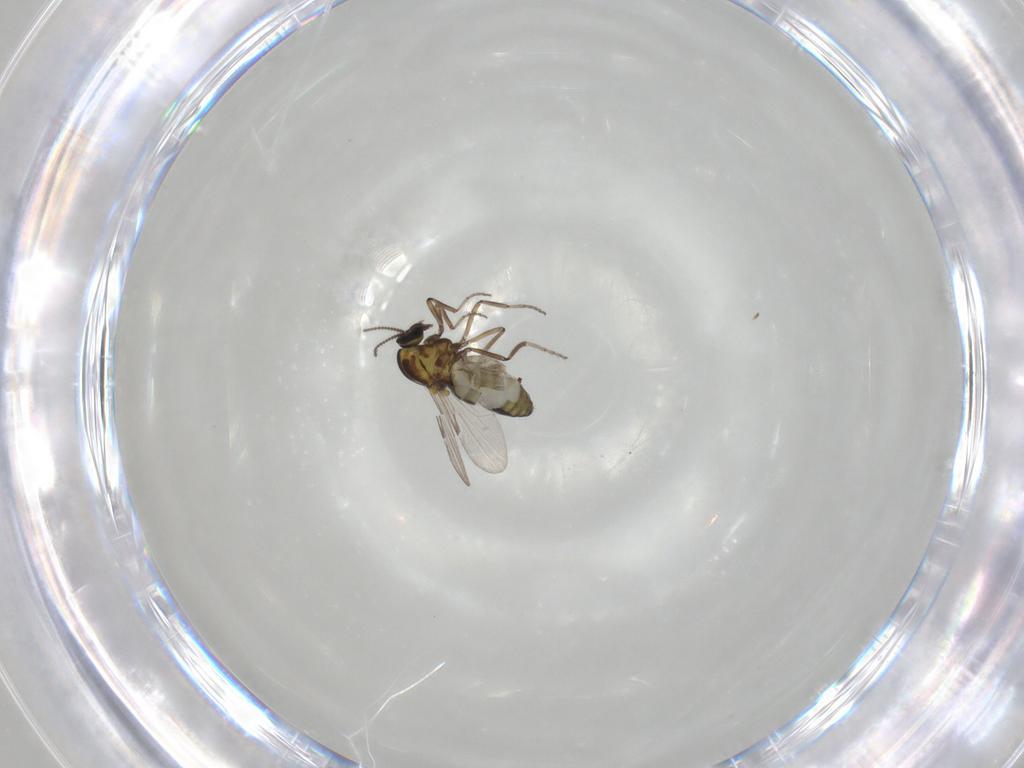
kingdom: Animalia
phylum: Arthropoda
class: Insecta
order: Diptera
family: Ceratopogonidae
